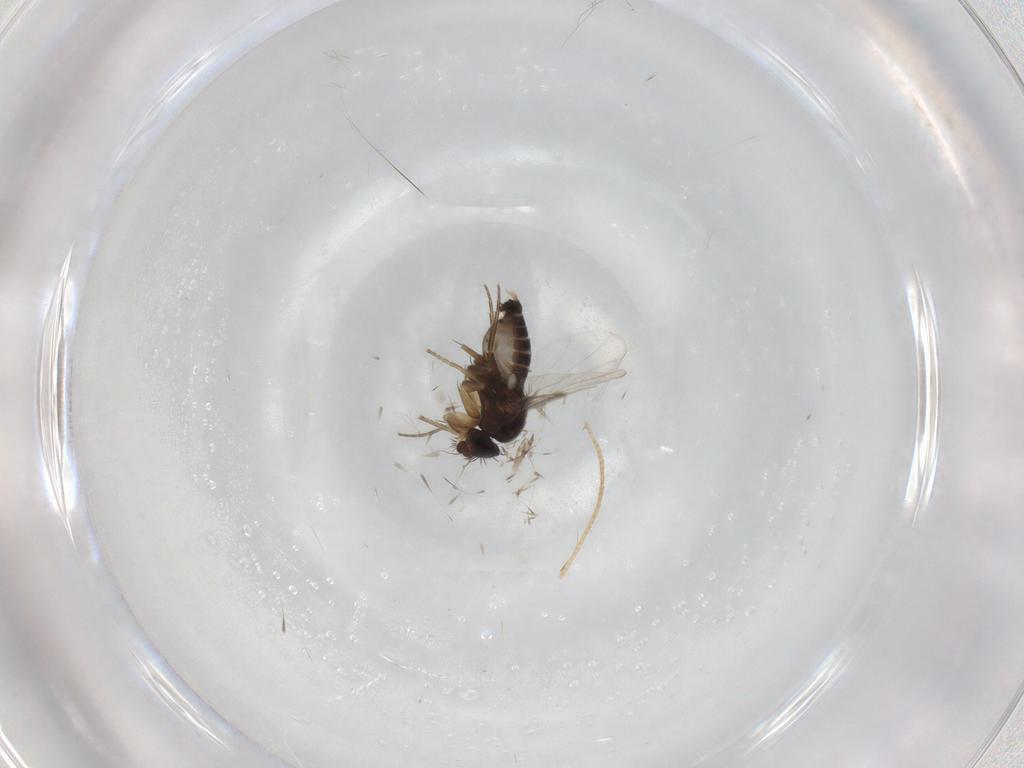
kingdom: Animalia
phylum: Arthropoda
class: Insecta
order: Diptera
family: Phoridae
